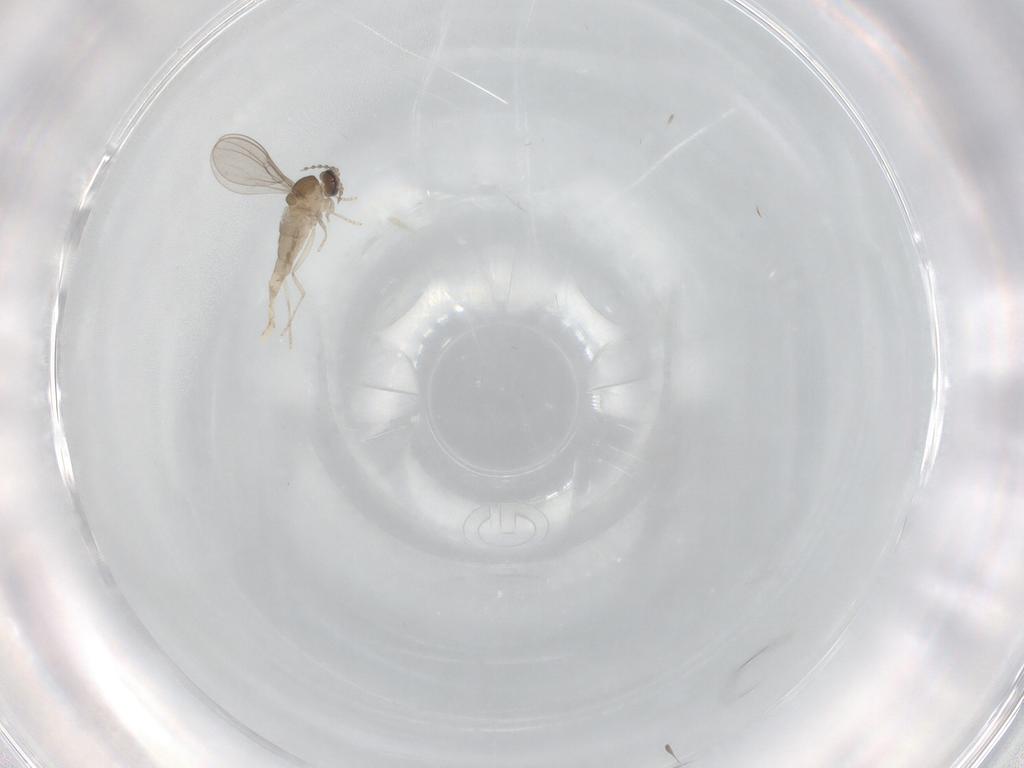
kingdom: Animalia
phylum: Arthropoda
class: Insecta
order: Diptera
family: Cecidomyiidae
